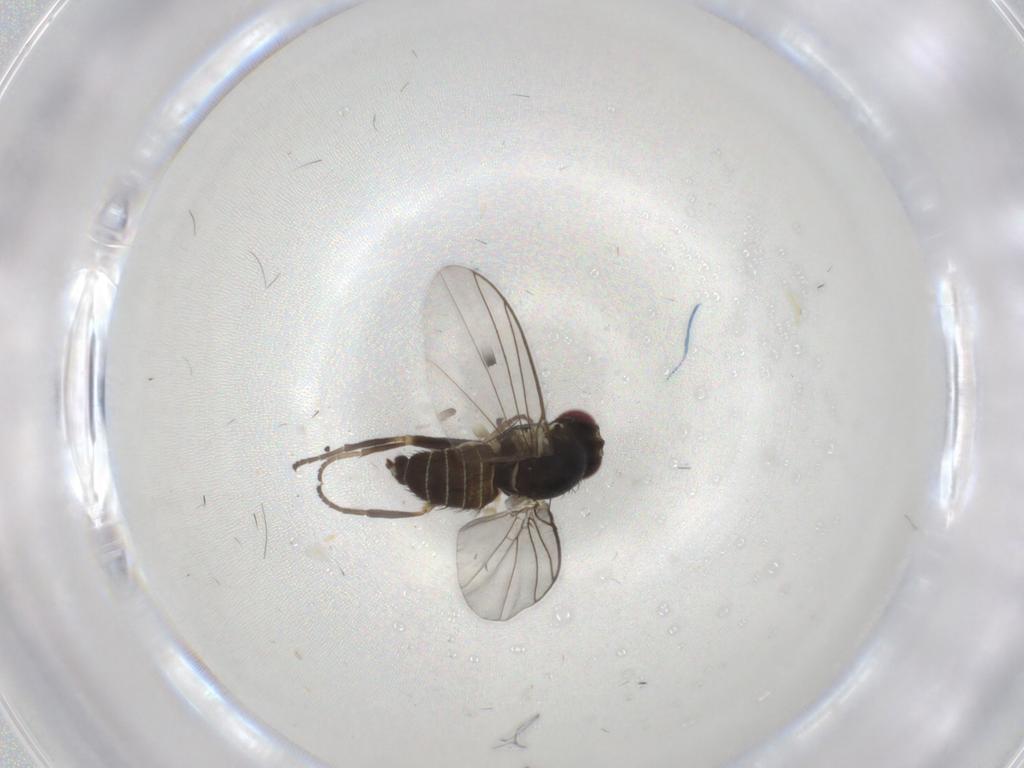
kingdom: Animalia
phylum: Arthropoda
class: Insecta
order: Diptera
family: Agromyzidae
